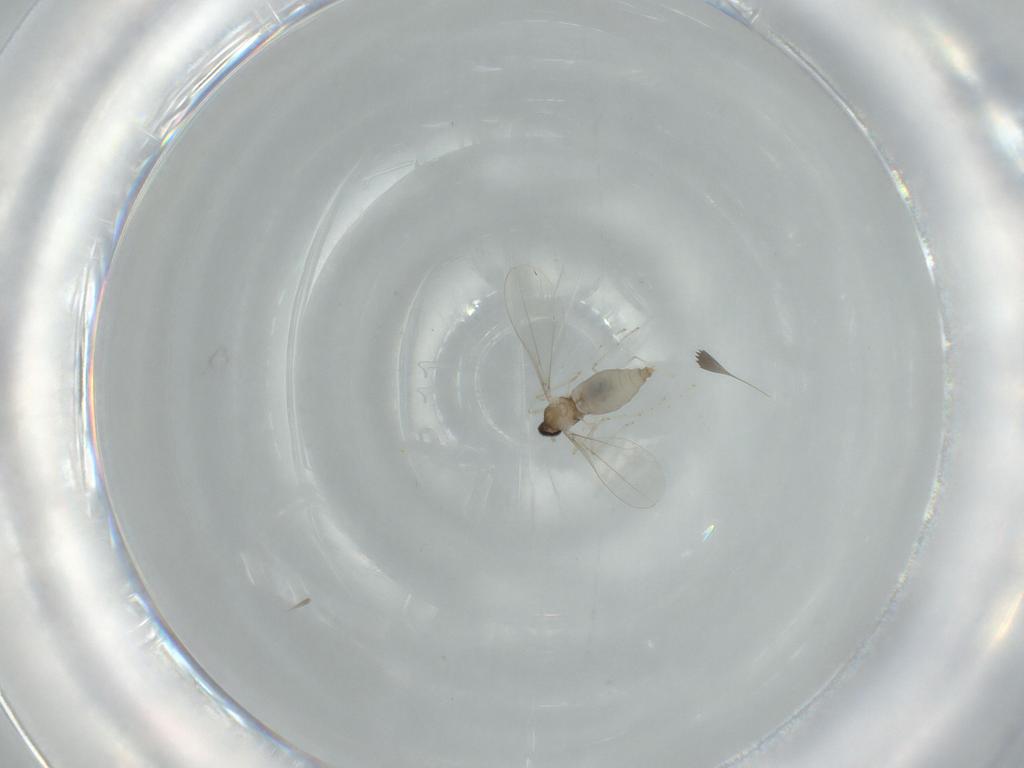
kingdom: Animalia
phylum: Arthropoda
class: Insecta
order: Diptera
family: Cecidomyiidae
